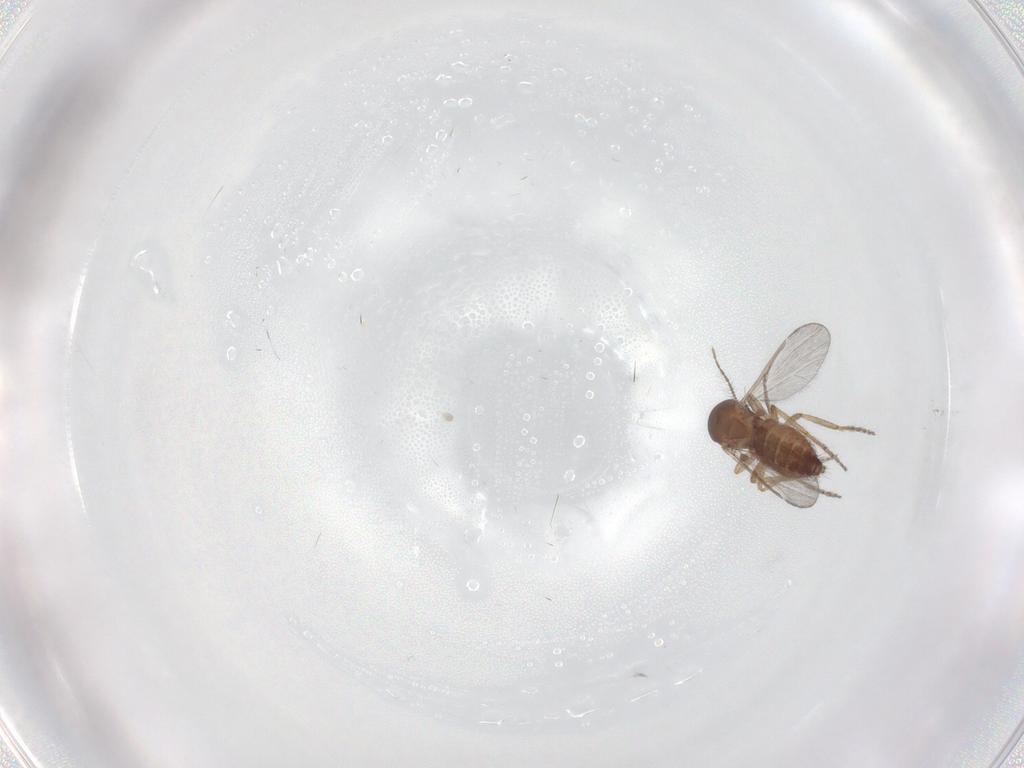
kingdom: Animalia
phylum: Arthropoda
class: Insecta
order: Diptera
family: Ceratopogonidae
